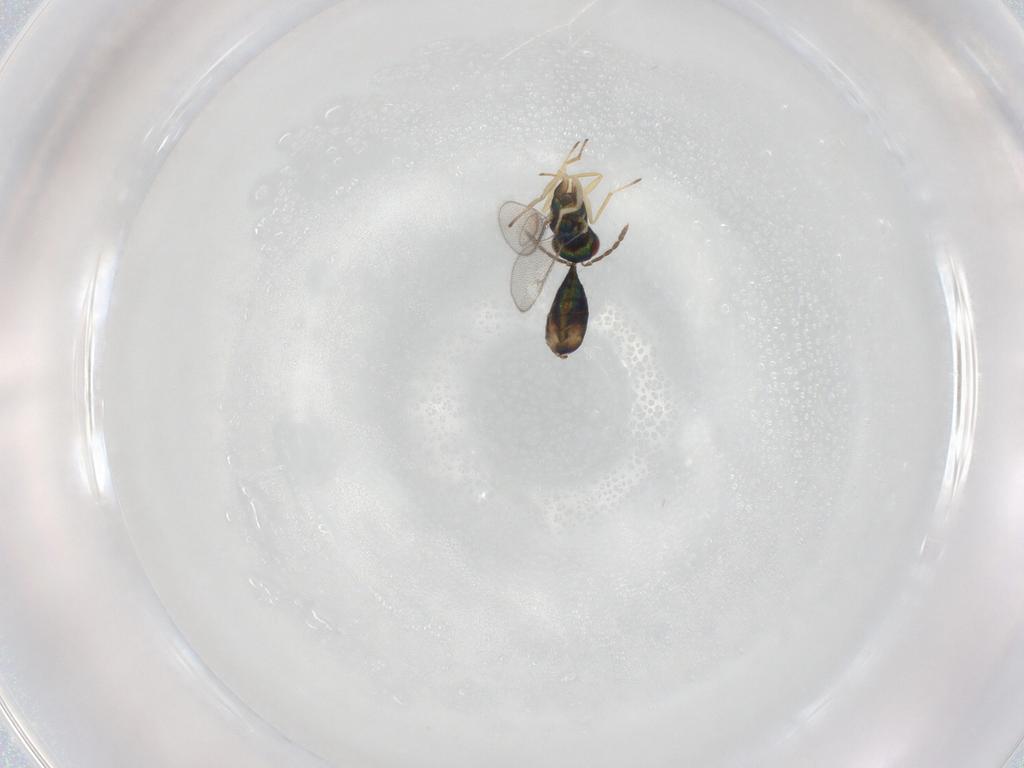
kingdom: Animalia
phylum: Arthropoda
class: Insecta
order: Hymenoptera
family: Eulophidae
